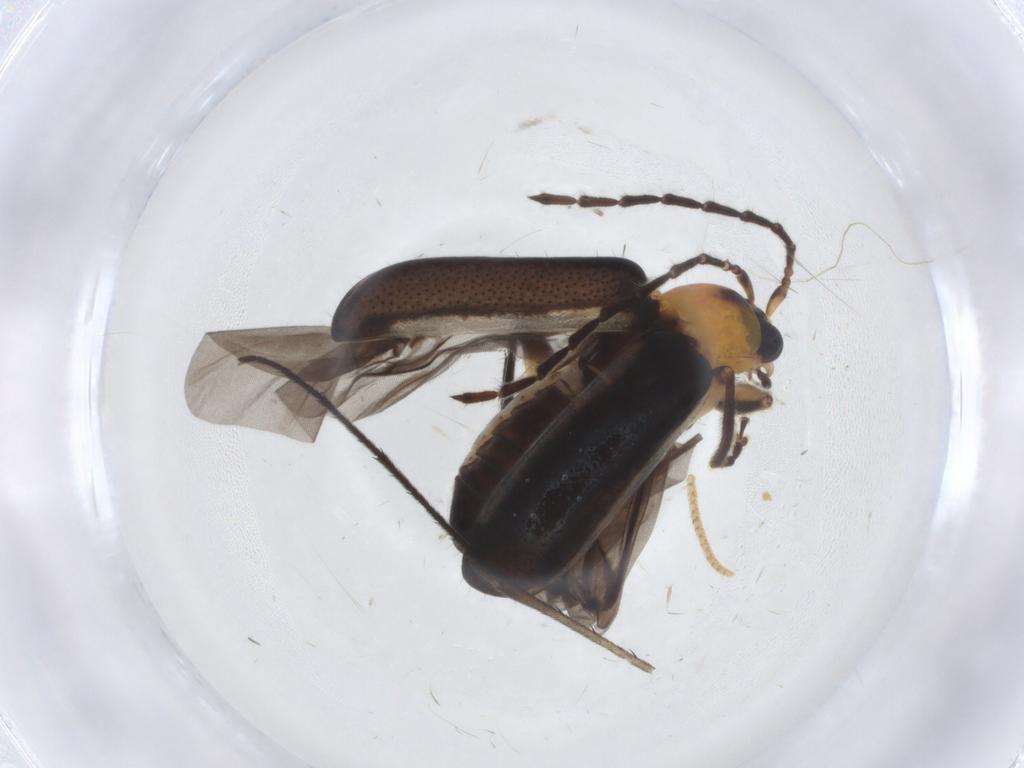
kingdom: Animalia
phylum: Arthropoda
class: Insecta
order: Coleoptera
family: Chrysomelidae
